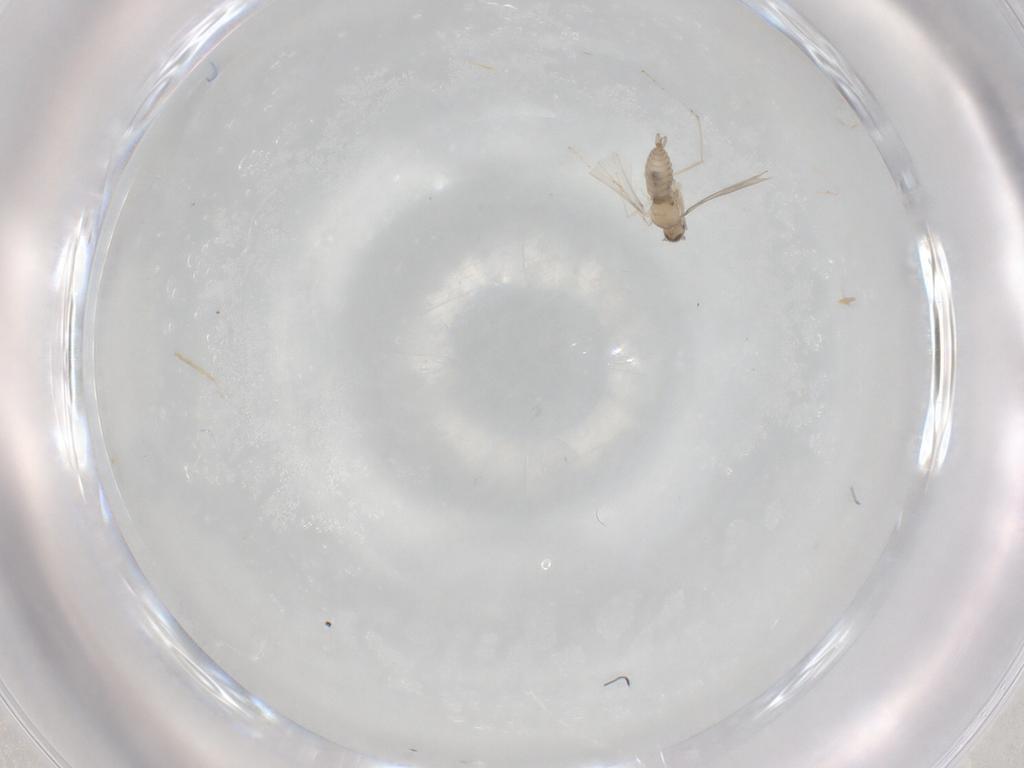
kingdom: Animalia
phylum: Arthropoda
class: Insecta
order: Diptera
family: Cecidomyiidae
